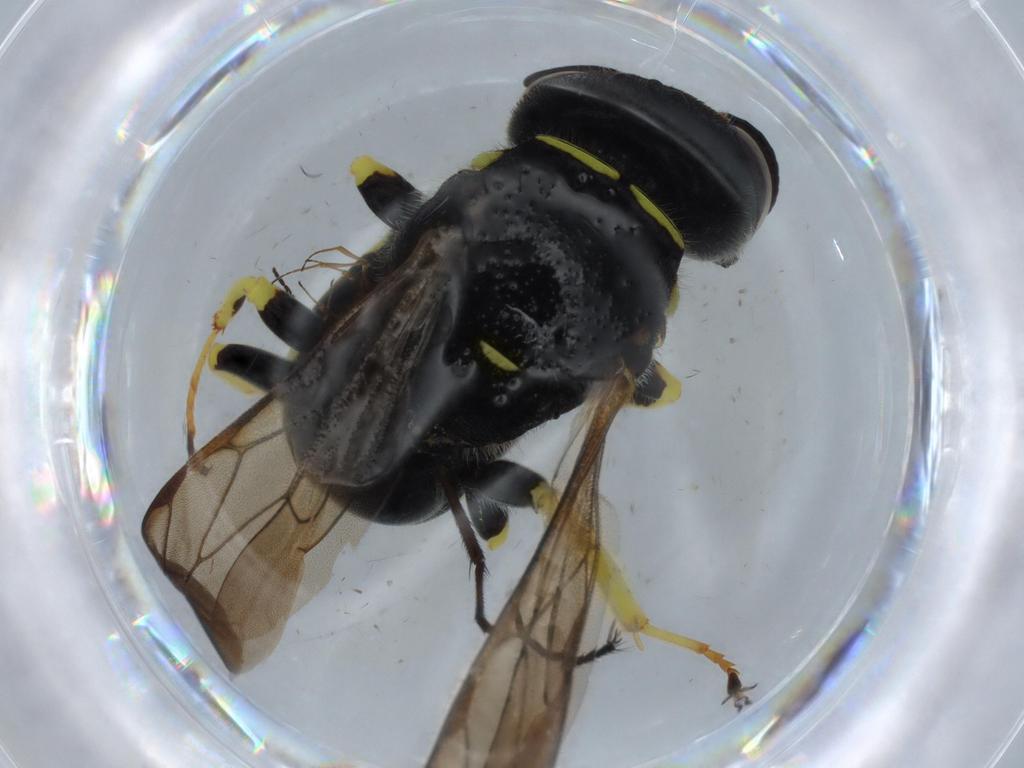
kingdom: Animalia
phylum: Arthropoda
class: Insecta
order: Hymenoptera
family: Figitidae
